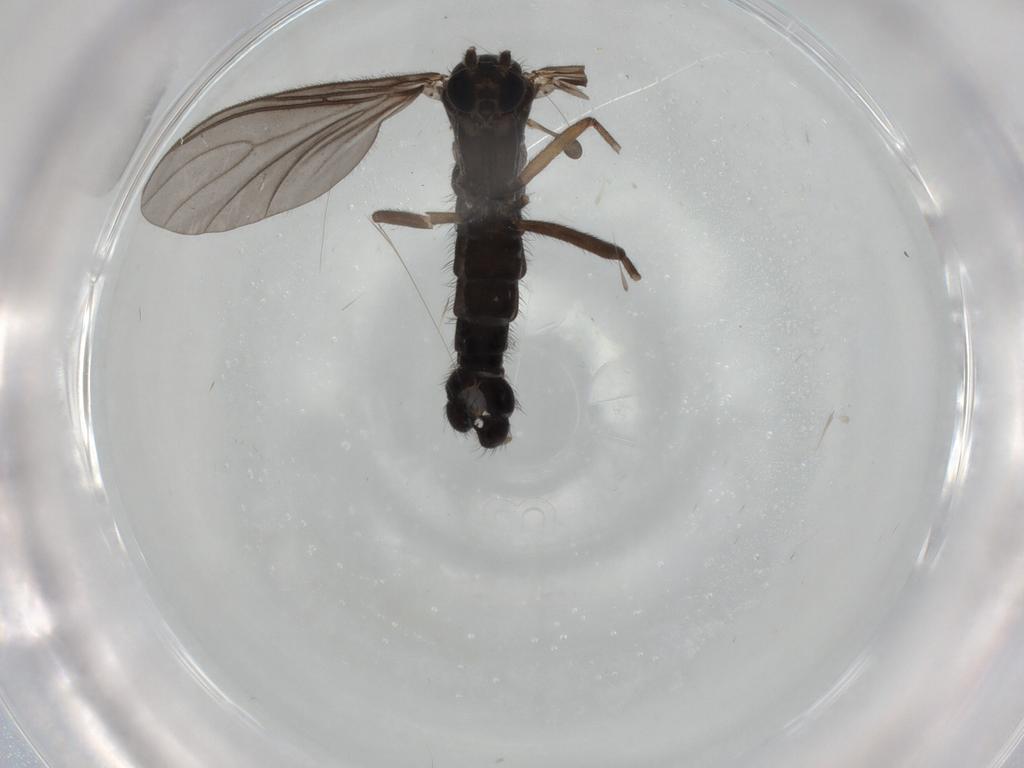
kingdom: Animalia
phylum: Arthropoda
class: Insecta
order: Diptera
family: Sciaridae
